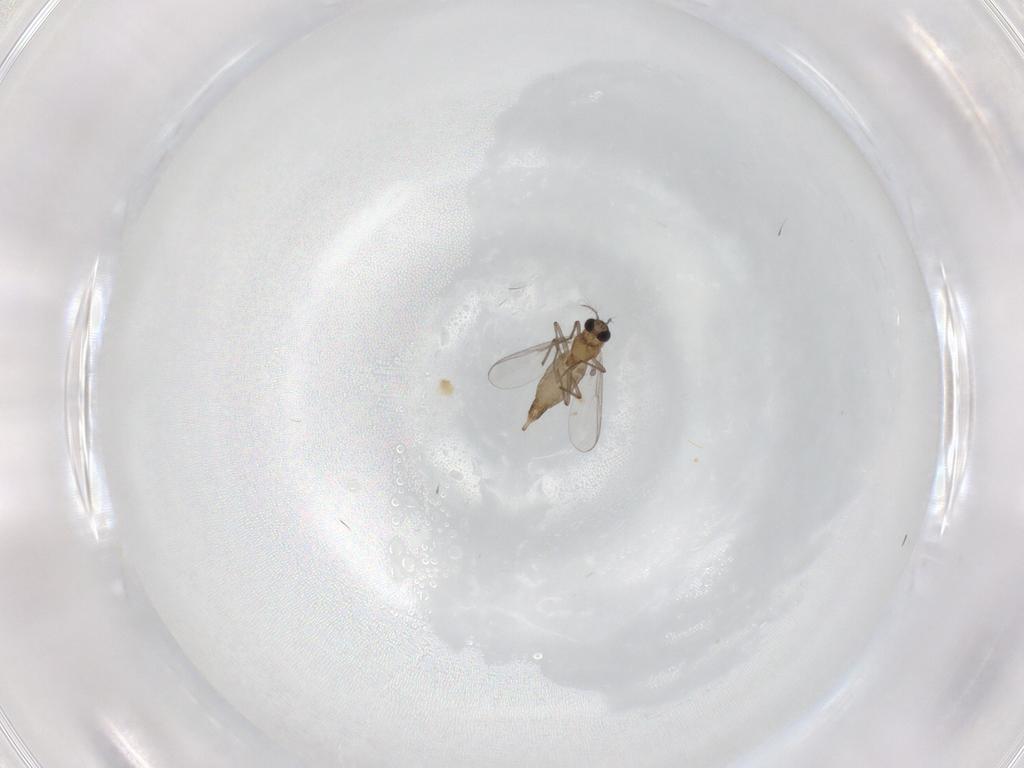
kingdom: Animalia
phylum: Arthropoda
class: Insecta
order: Diptera
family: Chironomidae
